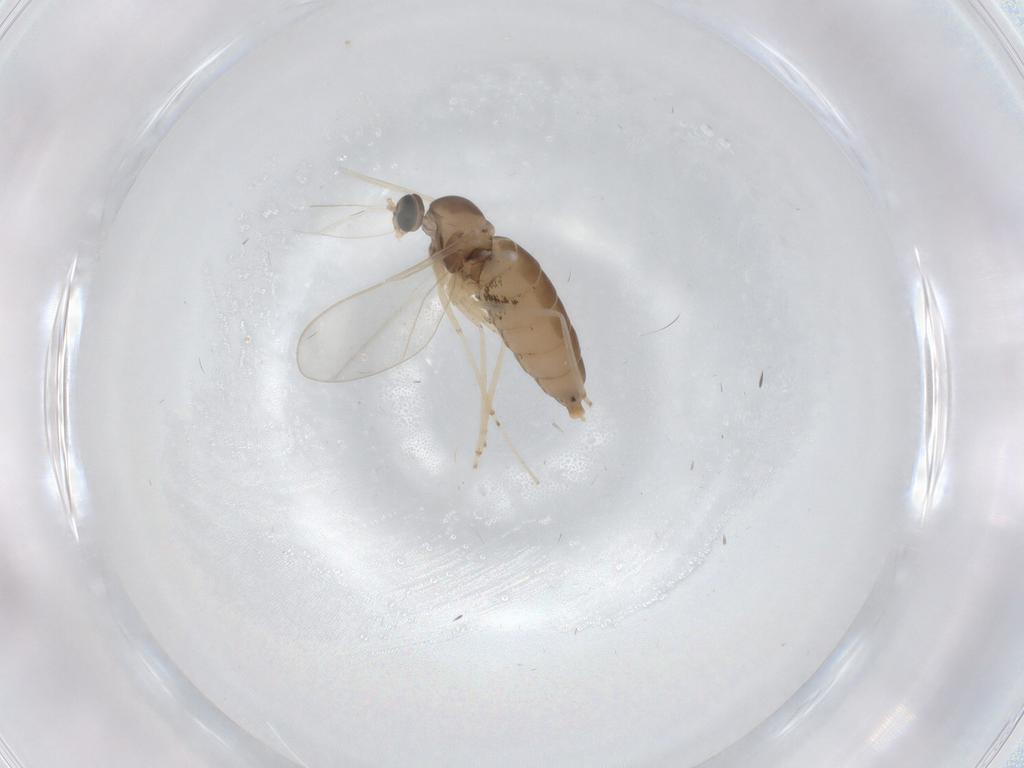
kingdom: Animalia
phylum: Arthropoda
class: Insecta
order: Diptera
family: Cecidomyiidae
